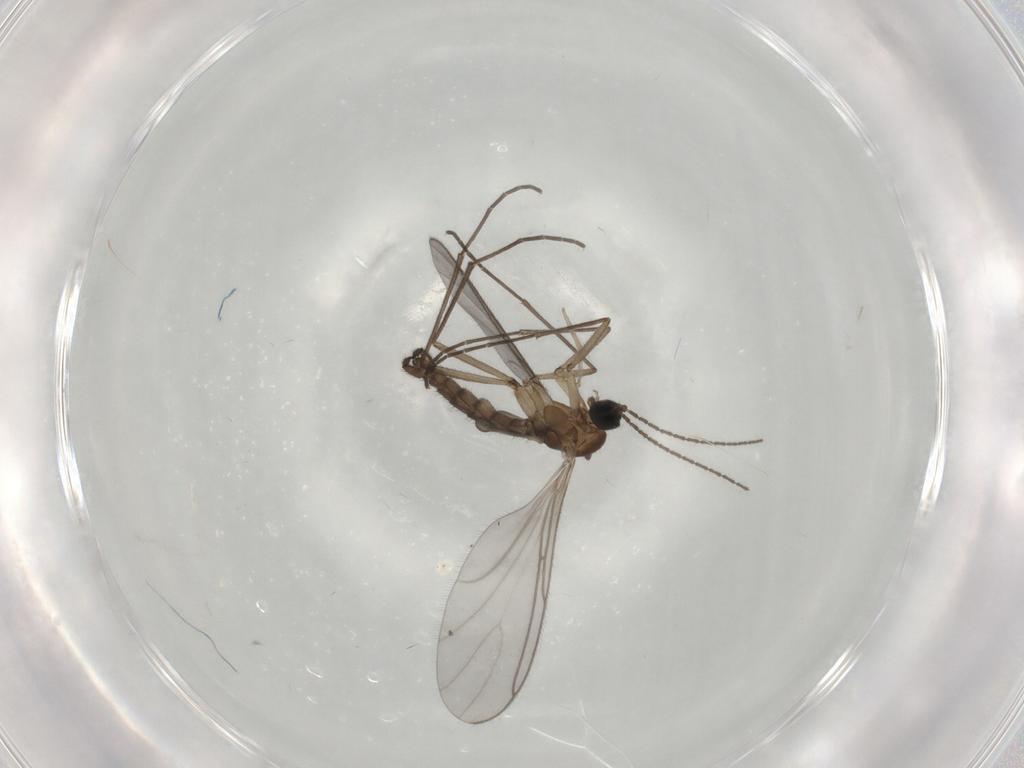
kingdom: Animalia
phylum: Arthropoda
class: Insecta
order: Diptera
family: Sciaridae
